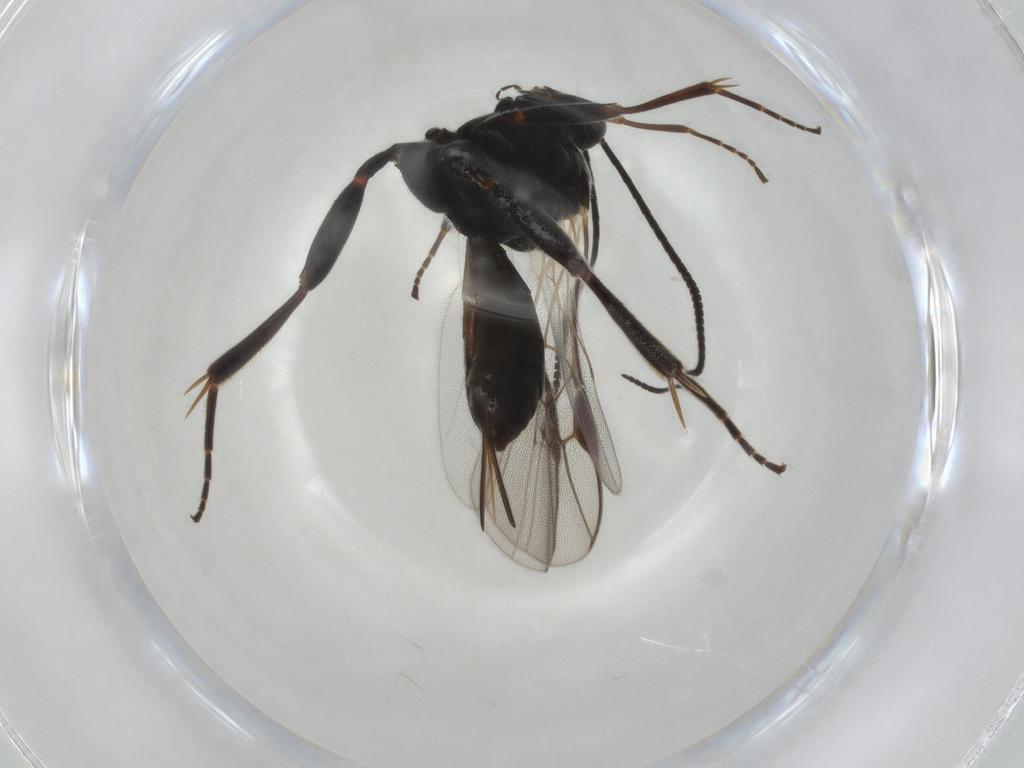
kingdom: Animalia
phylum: Arthropoda
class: Insecta
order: Hymenoptera
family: Braconidae
